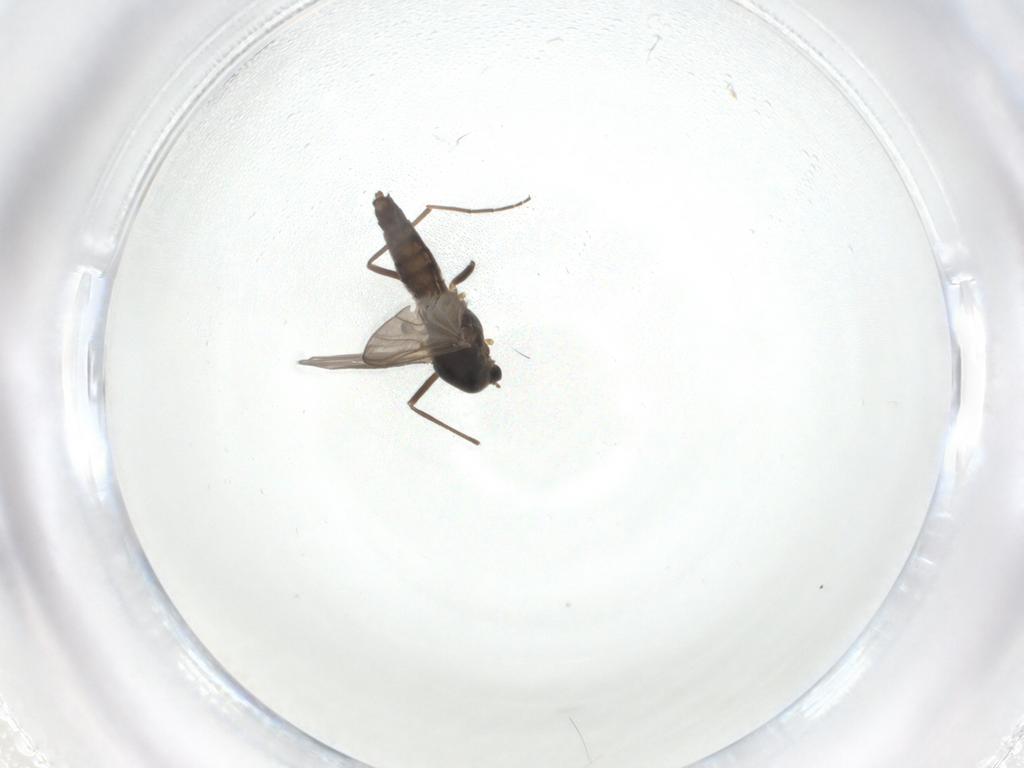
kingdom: Animalia
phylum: Arthropoda
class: Insecta
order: Diptera
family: Chironomidae
